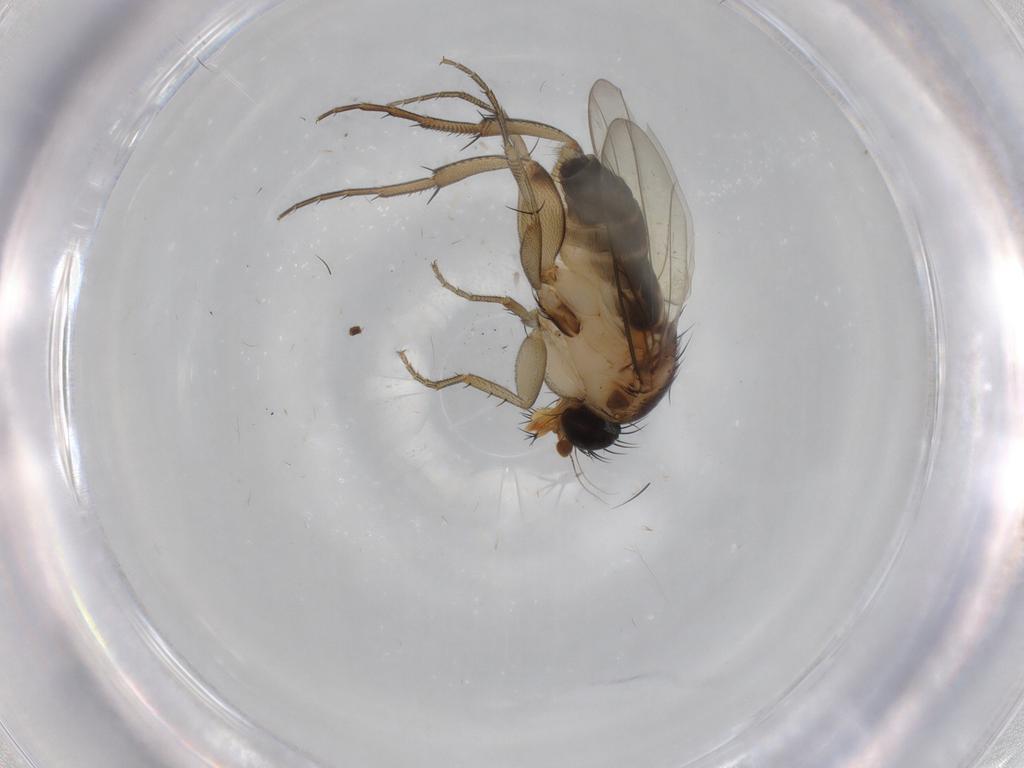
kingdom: Animalia
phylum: Arthropoda
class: Insecta
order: Diptera
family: Phoridae
